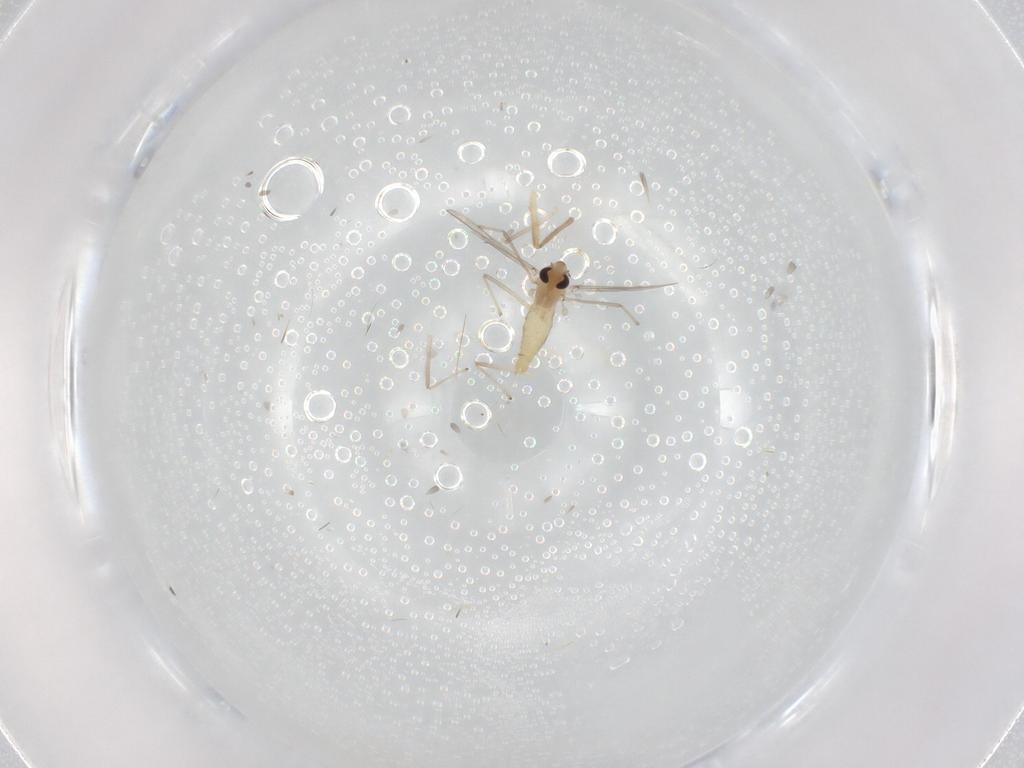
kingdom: Animalia
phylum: Arthropoda
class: Insecta
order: Diptera
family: Chironomidae
